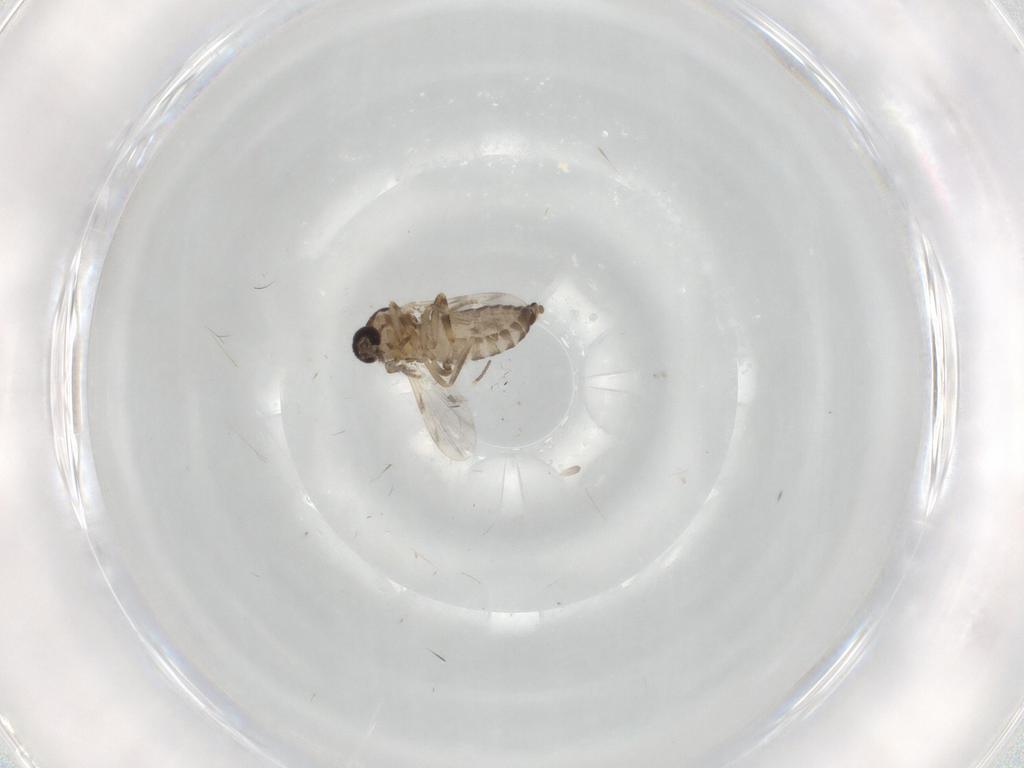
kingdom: Animalia
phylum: Arthropoda
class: Insecta
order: Diptera
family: Ceratopogonidae
